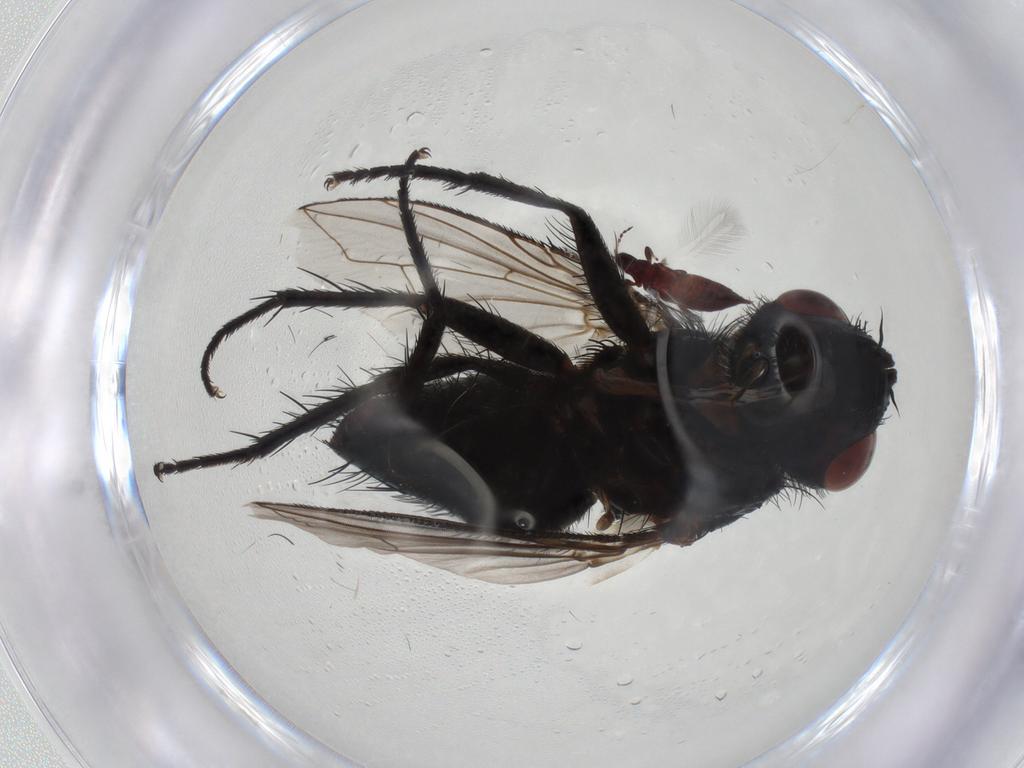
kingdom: Animalia
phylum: Arthropoda
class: Insecta
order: Diptera
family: Tachinidae
